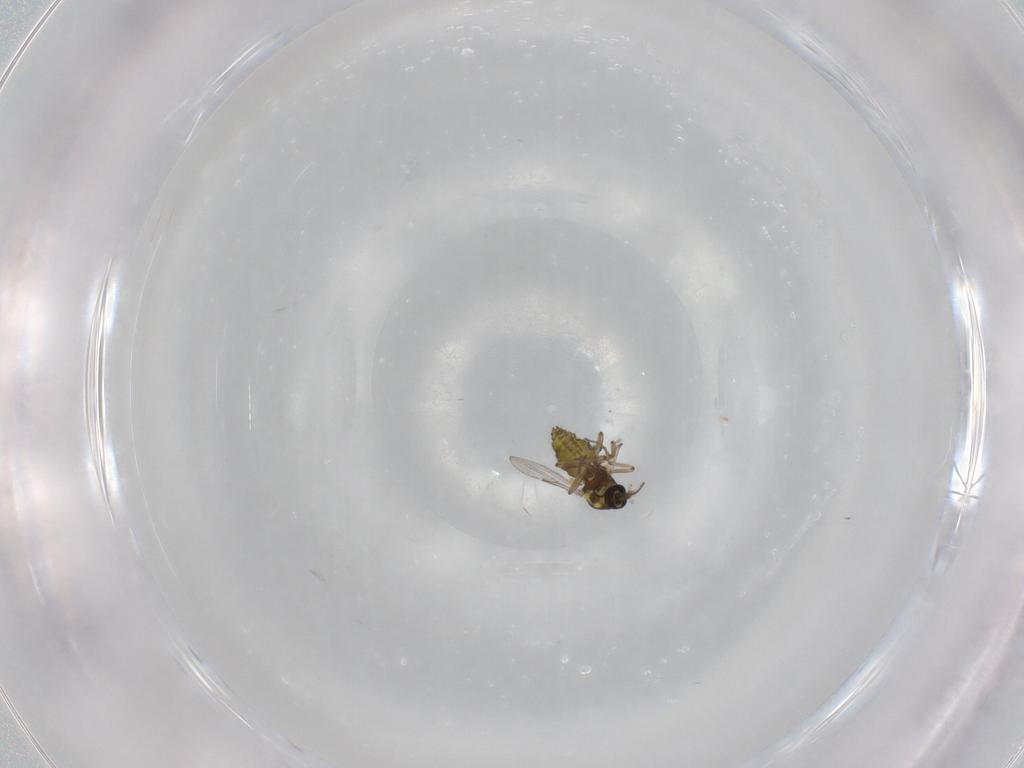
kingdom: Animalia
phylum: Arthropoda
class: Insecta
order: Diptera
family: Ceratopogonidae
